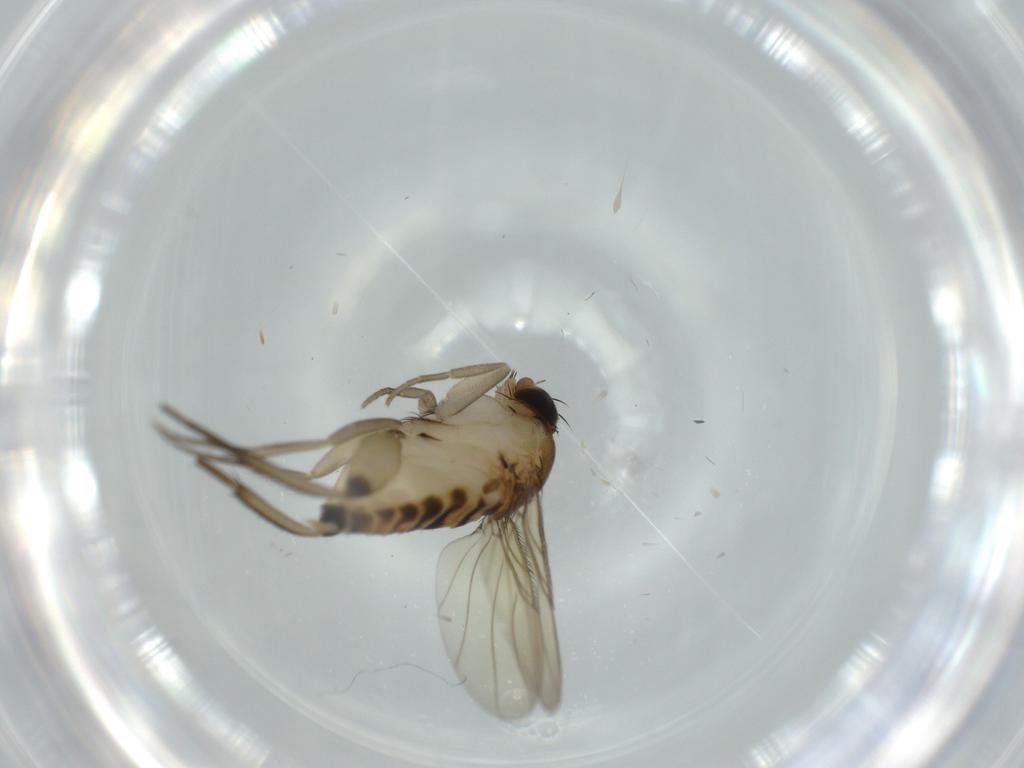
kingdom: Animalia
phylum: Arthropoda
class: Insecta
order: Diptera
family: Phoridae
